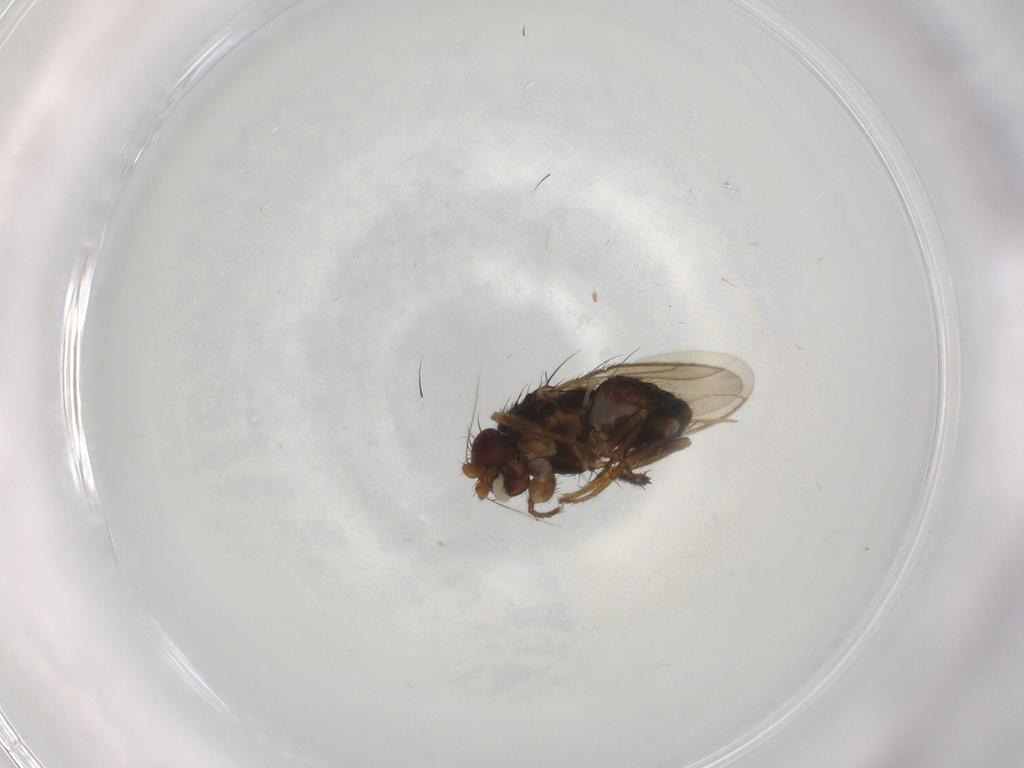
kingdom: Animalia
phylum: Arthropoda
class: Insecta
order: Diptera
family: Sphaeroceridae
